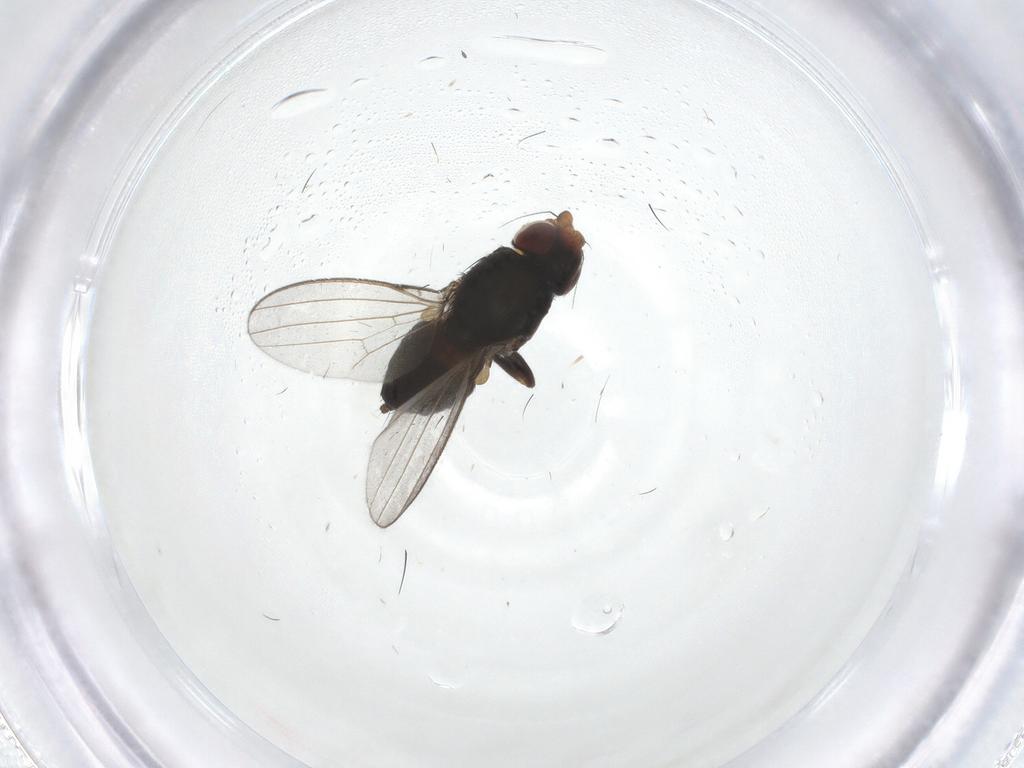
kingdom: Animalia
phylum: Arthropoda
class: Insecta
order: Diptera
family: Milichiidae
